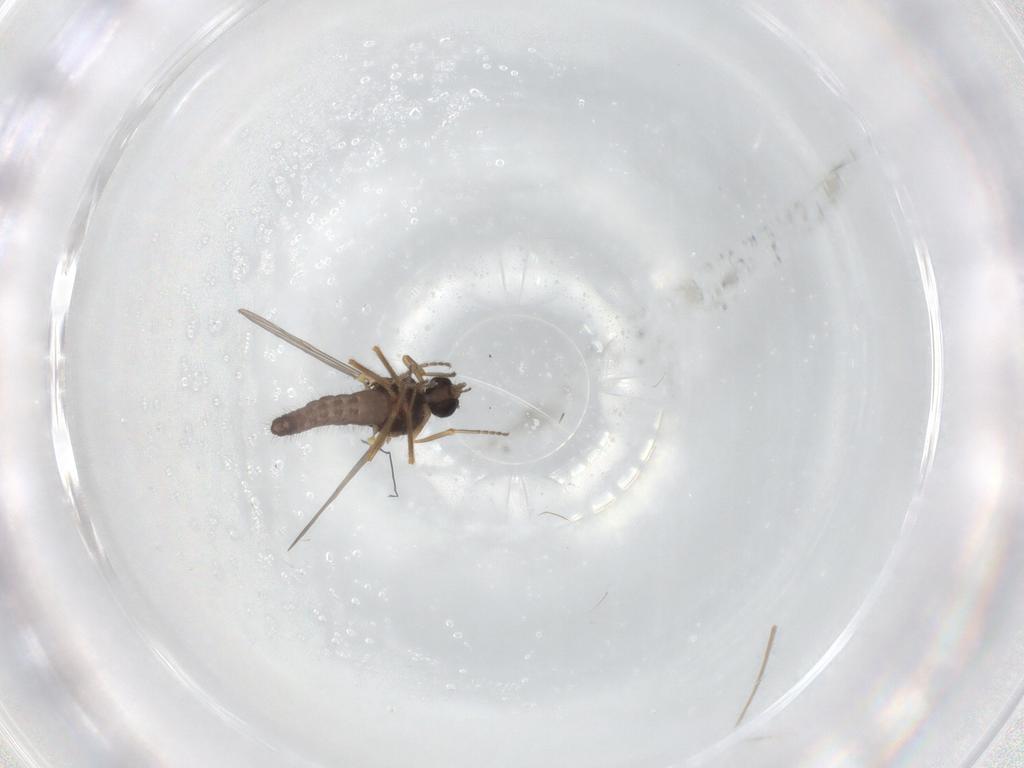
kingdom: Animalia
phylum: Arthropoda
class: Insecta
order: Diptera
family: Ceratopogonidae
